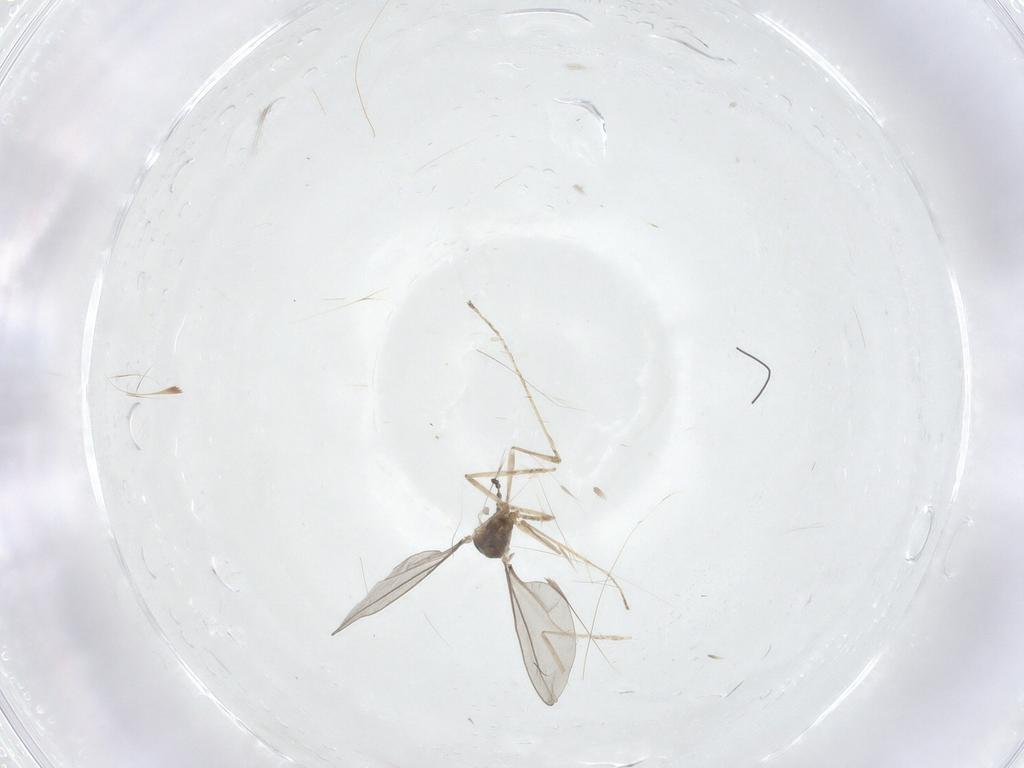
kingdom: Animalia
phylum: Arthropoda
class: Insecta
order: Diptera
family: Cecidomyiidae
